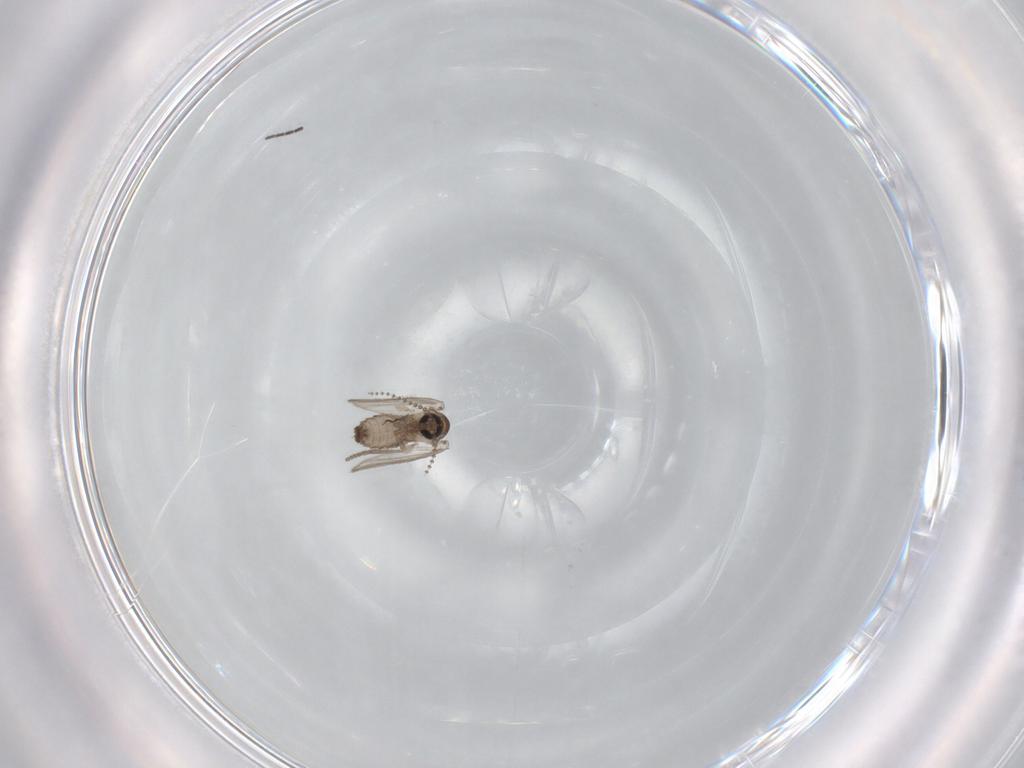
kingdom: Animalia
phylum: Arthropoda
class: Insecta
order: Diptera
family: Psychodidae
